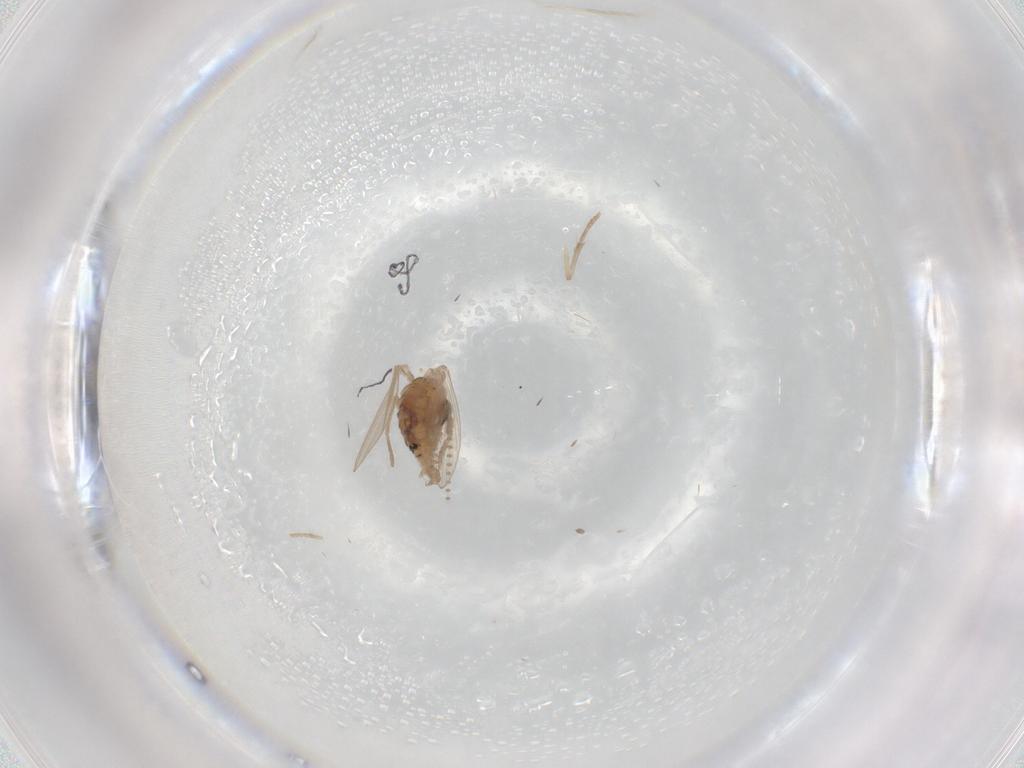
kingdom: Animalia
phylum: Arthropoda
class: Insecta
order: Diptera
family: Psychodidae
